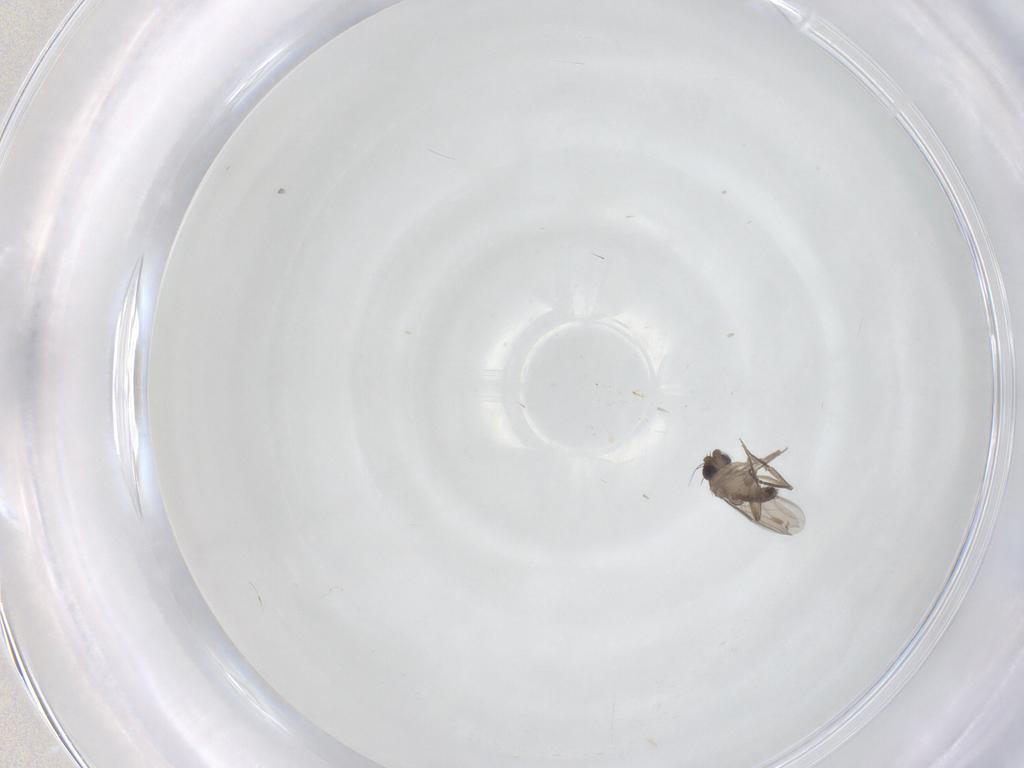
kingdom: Animalia
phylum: Arthropoda
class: Insecta
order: Diptera
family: Phoridae
